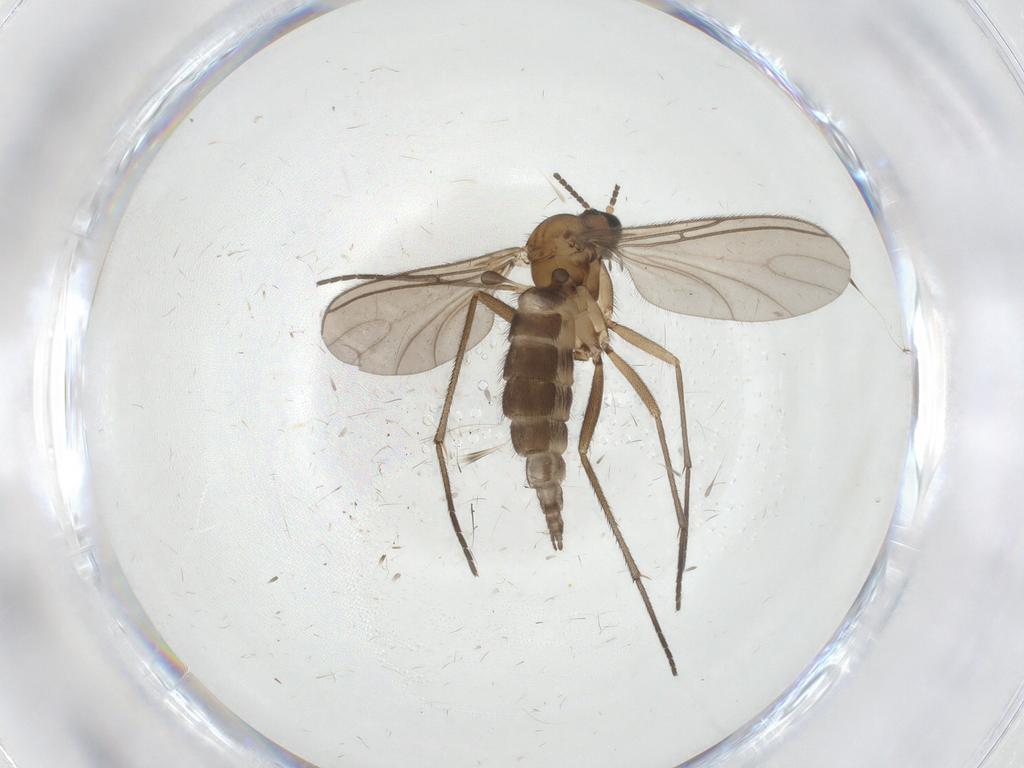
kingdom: Animalia
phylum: Arthropoda
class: Insecta
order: Diptera
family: Sciaridae
